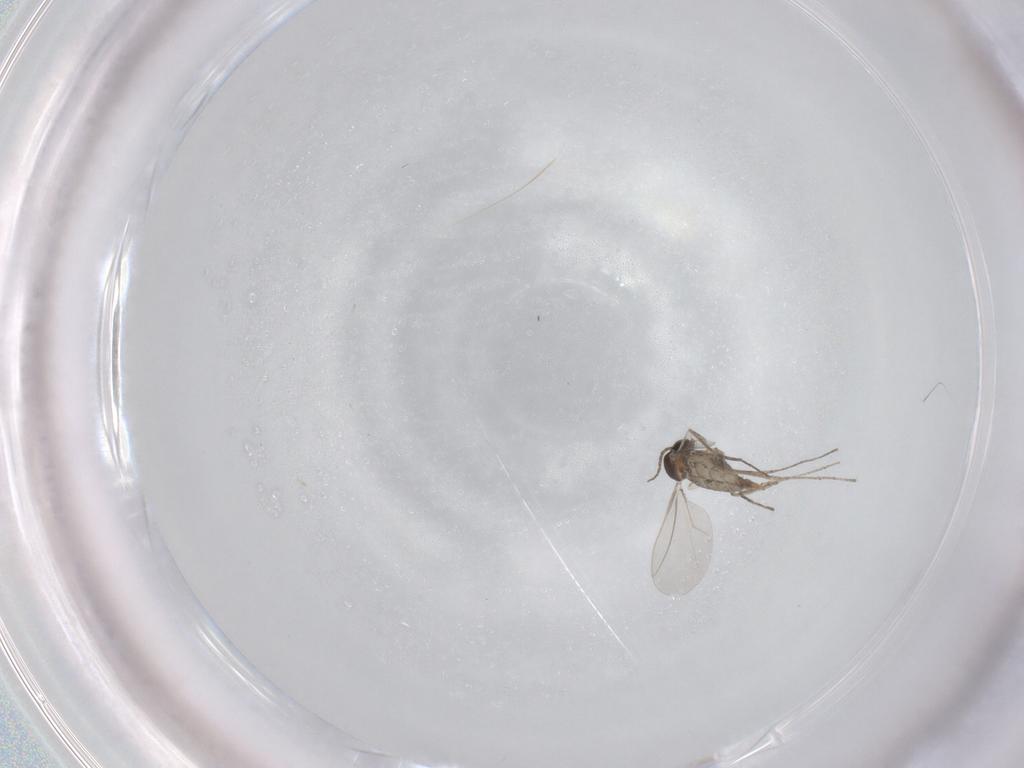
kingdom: Animalia
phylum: Arthropoda
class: Insecta
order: Diptera
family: Cecidomyiidae
